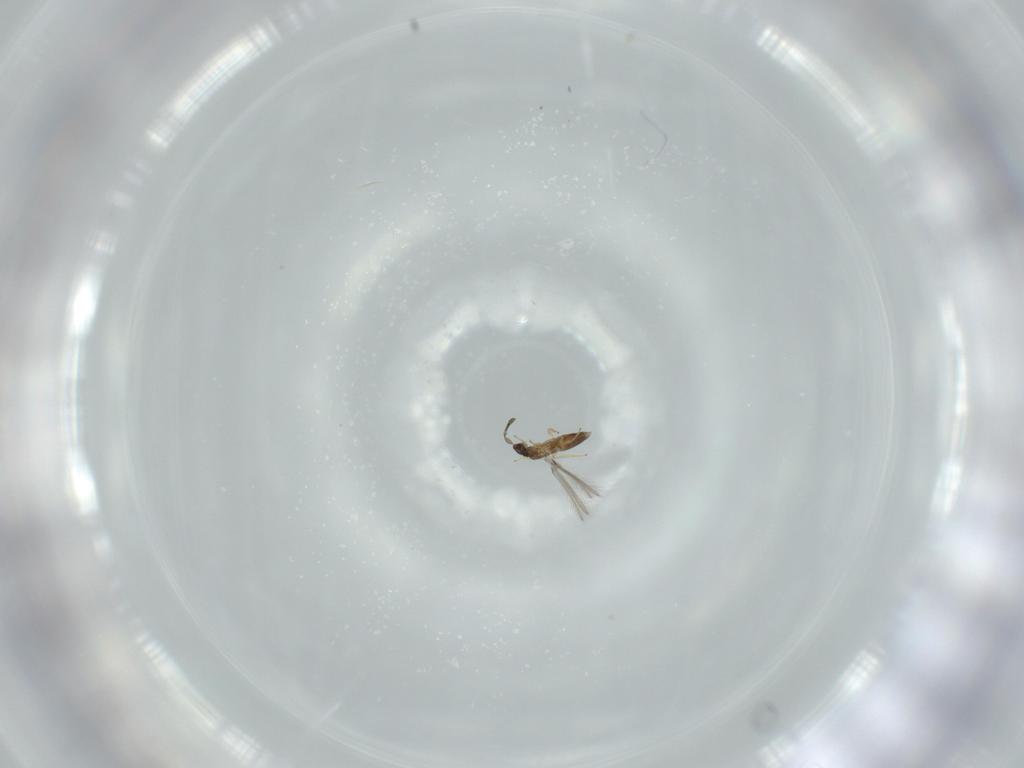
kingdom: Animalia
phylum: Arthropoda
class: Insecta
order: Hymenoptera
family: Mymaridae
